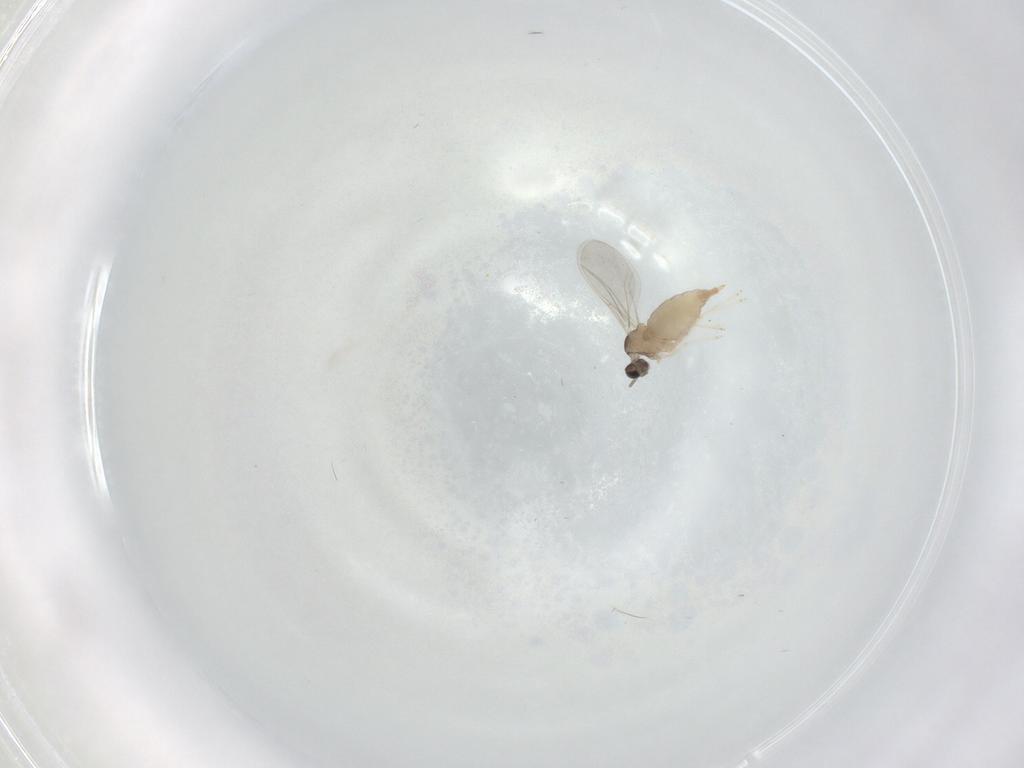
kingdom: Animalia
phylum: Arthropoda
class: Insecta
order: Diptera
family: Cecidomyiidae
